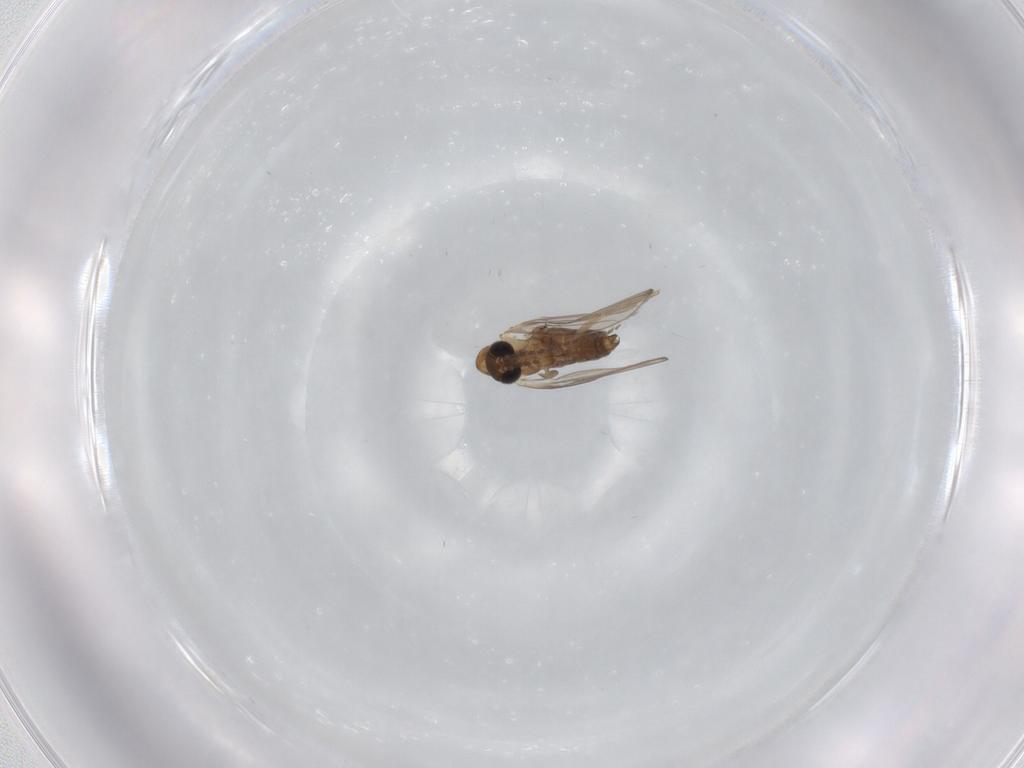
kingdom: Animalia
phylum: Arthropoda
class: Insecta
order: Diptera
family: Psychodidae
